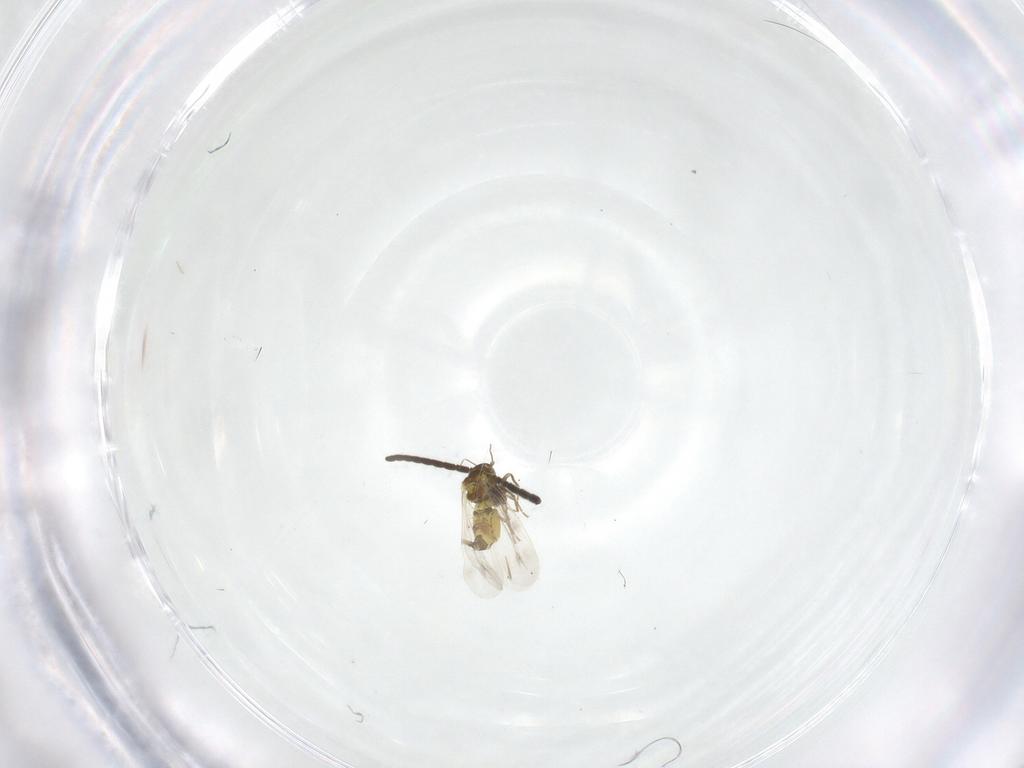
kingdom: Animalia
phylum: Arthropoda
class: Insecta
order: Diptera
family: Mycetophilidae
